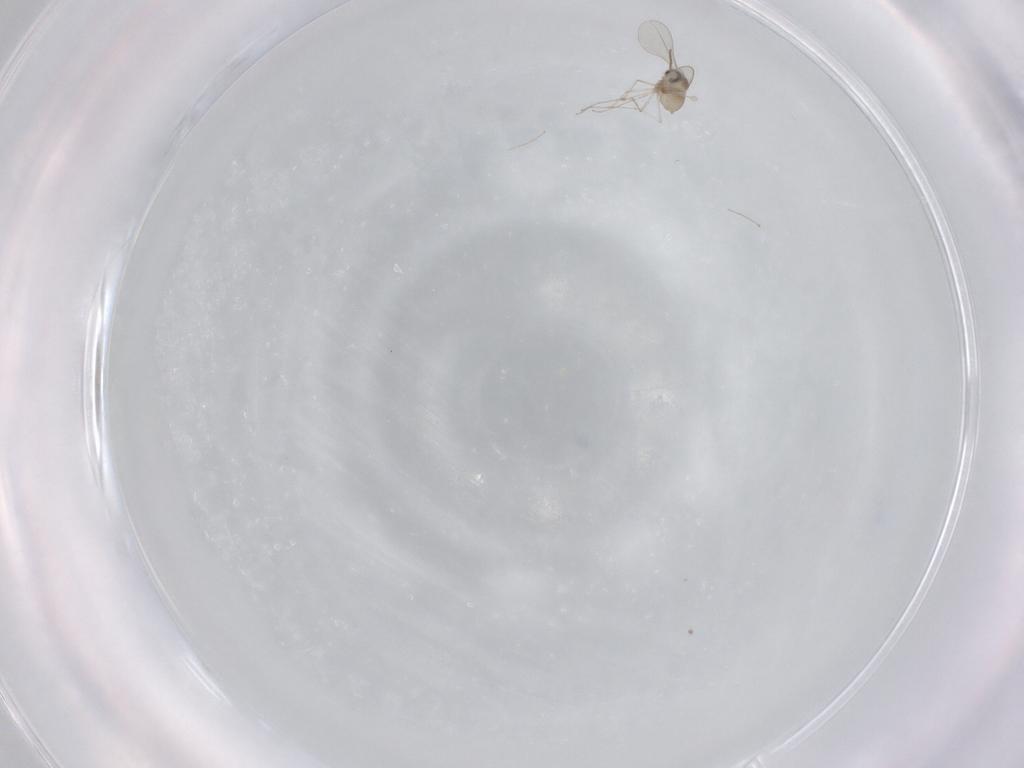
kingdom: Animalia
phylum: Arthropoda
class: Insecta
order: Diptera
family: Cecidomyiidae
